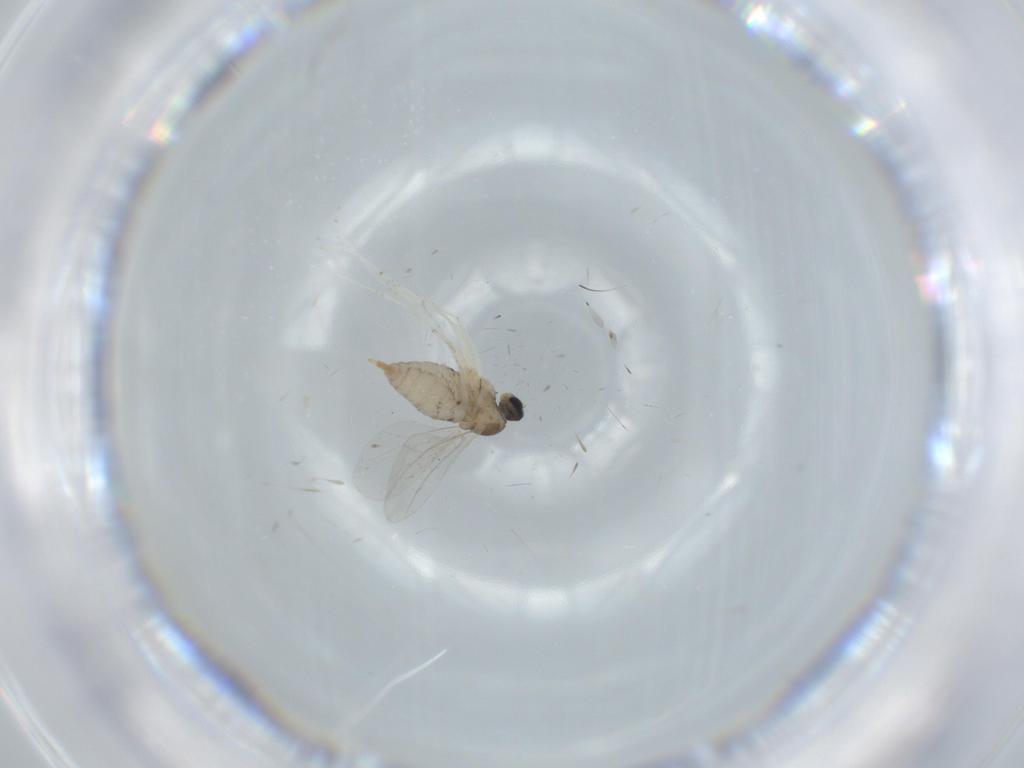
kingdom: Animalia
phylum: Arthropoda
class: Insecta
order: Diptera
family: Cecidomyiidae
